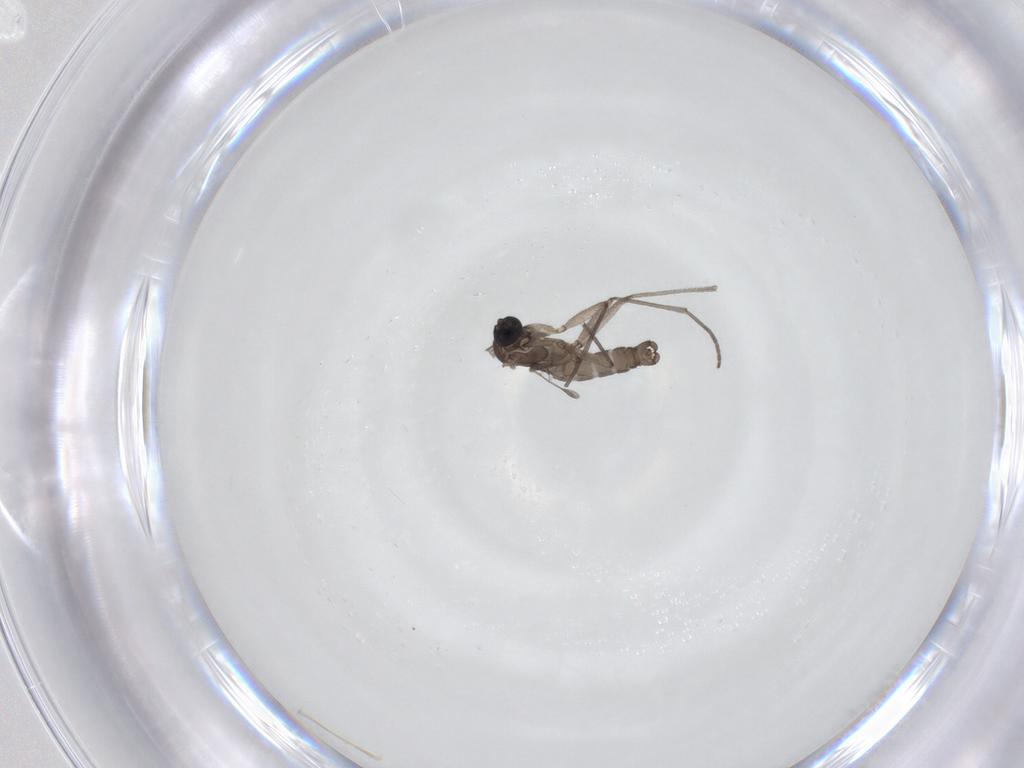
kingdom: Animalia
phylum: Arthropoda
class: Insecta
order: Diptera
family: Sciaridae
